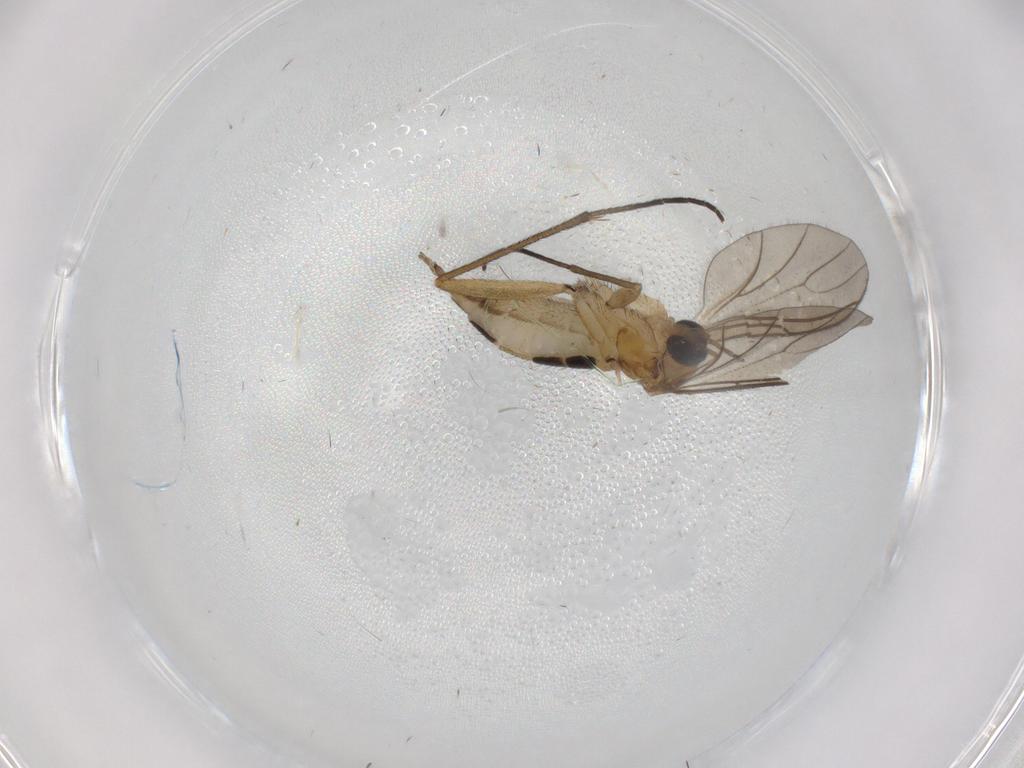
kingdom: Animalia
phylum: Arthropoda
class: Insecta
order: Diptera
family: Sciaridae
